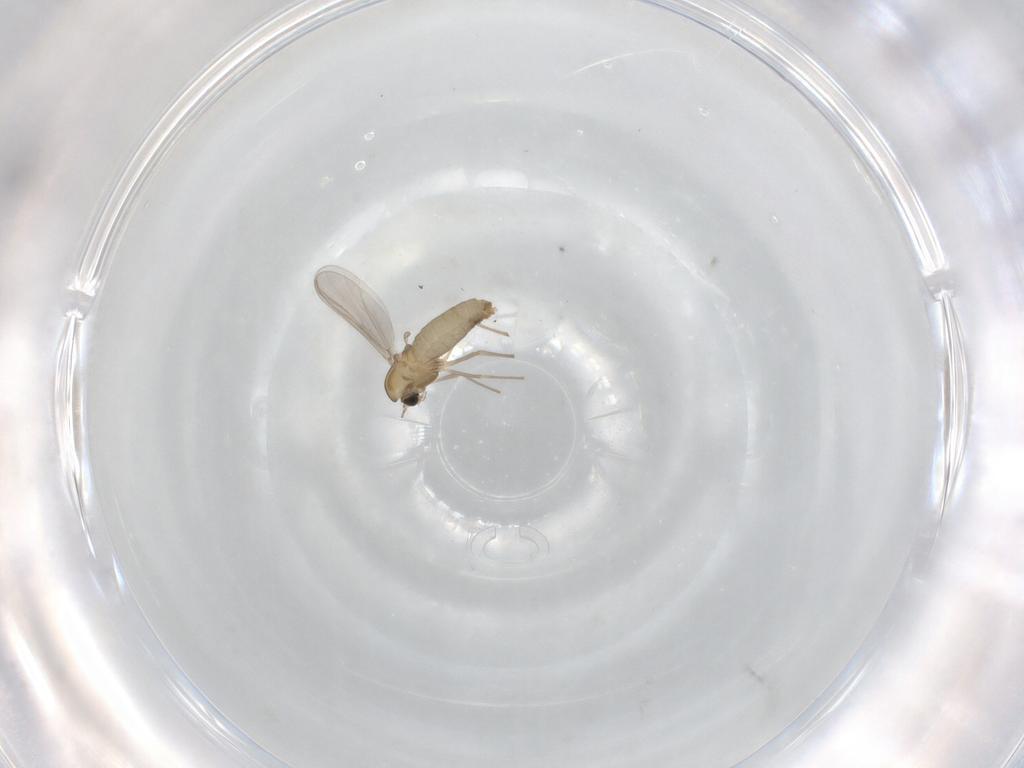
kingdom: Animalia
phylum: Arthropoda
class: Insecta
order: Diptera
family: Chironomidae
